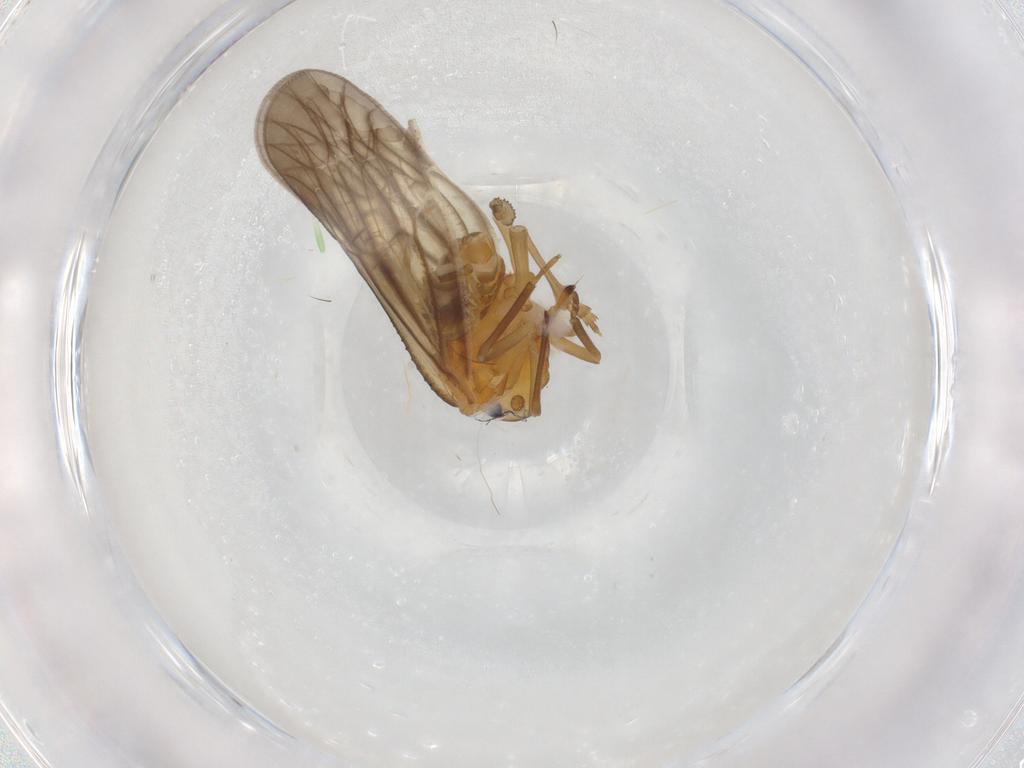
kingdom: Animalia
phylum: Arthropoda
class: Insecta
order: Hemiptera
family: Meenoplidae
